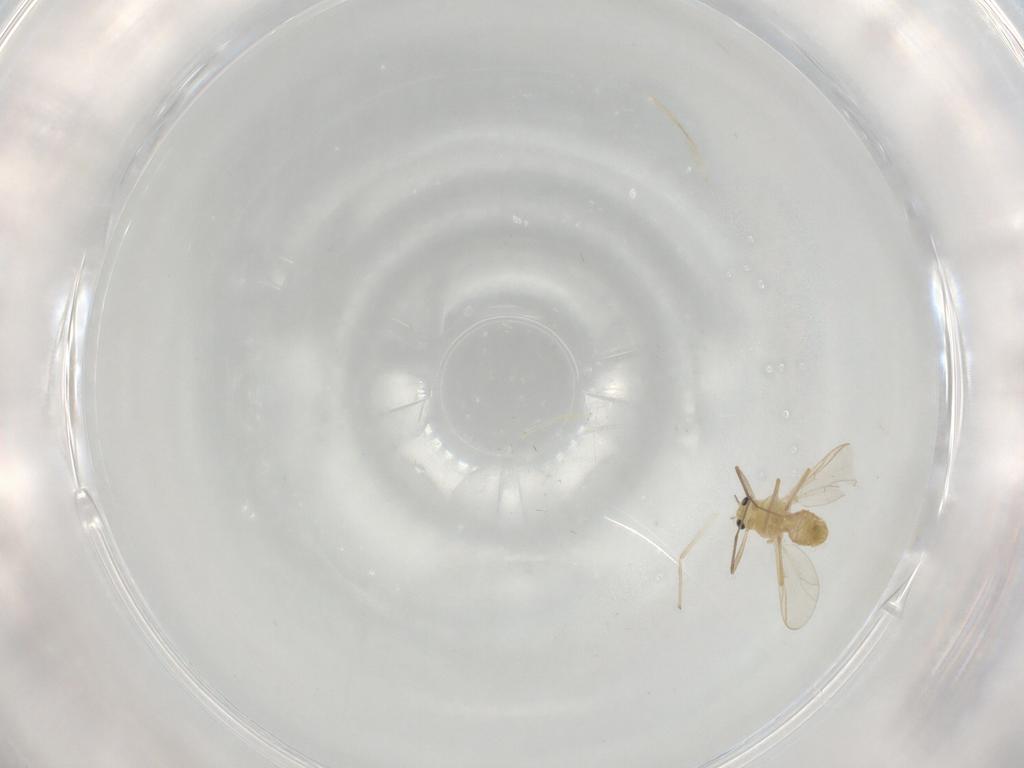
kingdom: Animalia
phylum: Arthropoda
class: Insecta
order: Diptera
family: Chironomidae
